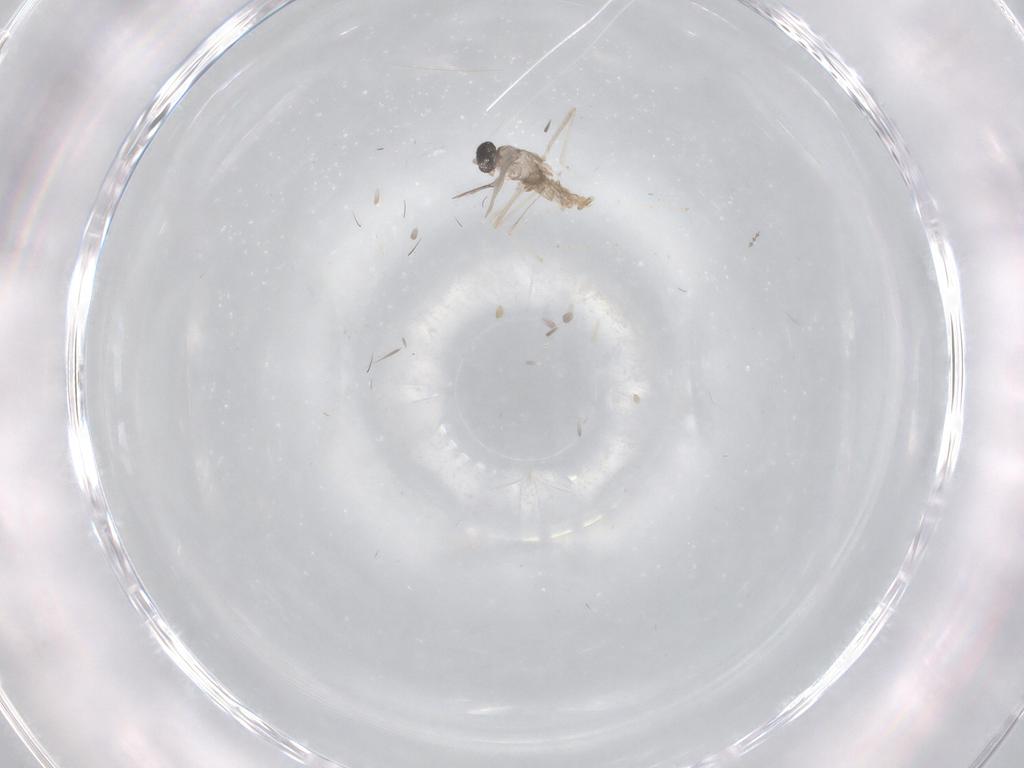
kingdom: Animalia
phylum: Arthropoda
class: Insecta
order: Diptera
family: Cecidomyiidae
